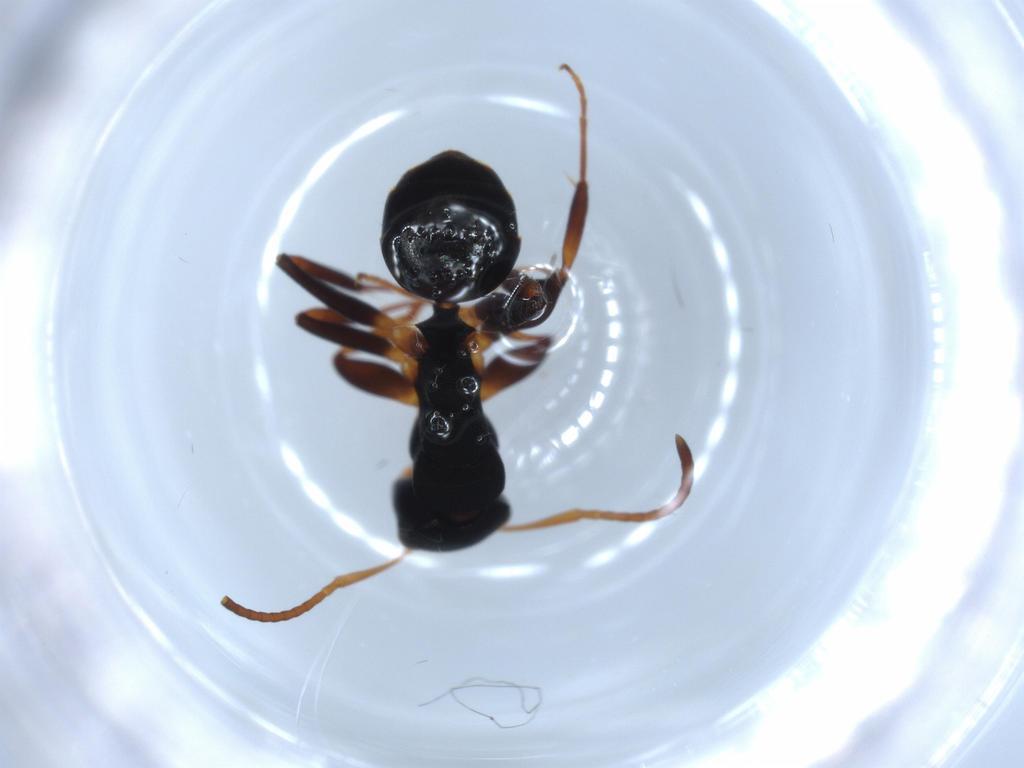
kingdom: Animalia
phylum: Arthropoda
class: Insecta
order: Hymenoptera
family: Formicidae
